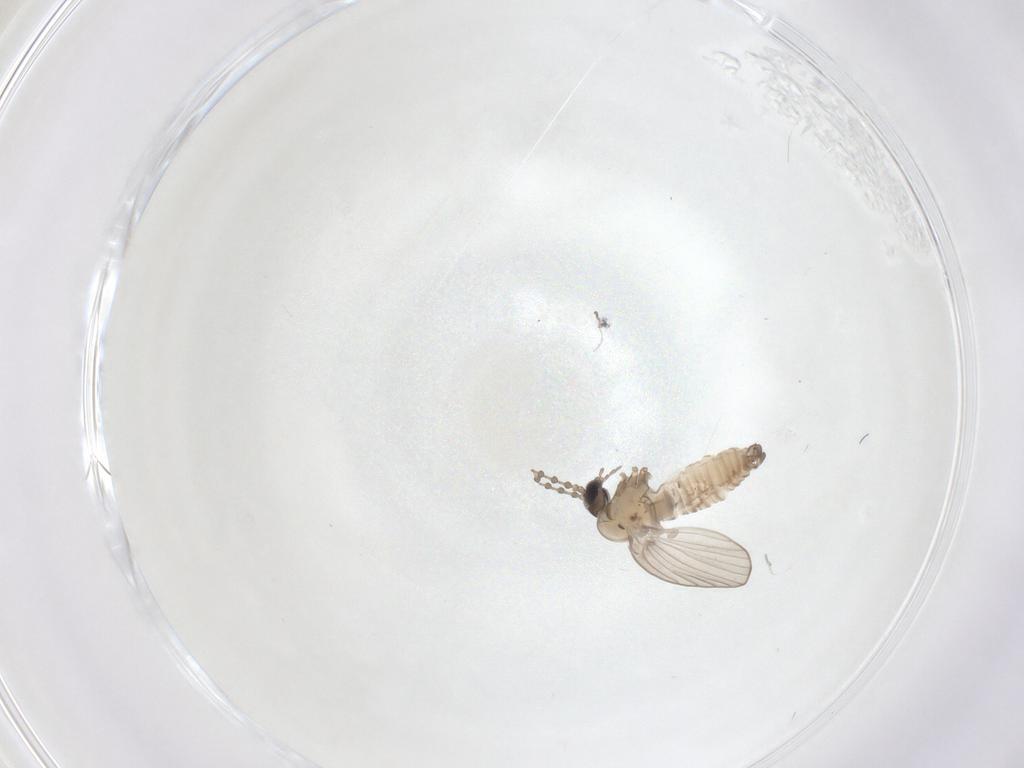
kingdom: Animalia
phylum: Arthropoda
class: Insecta
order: Diptera
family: Psychodidae
